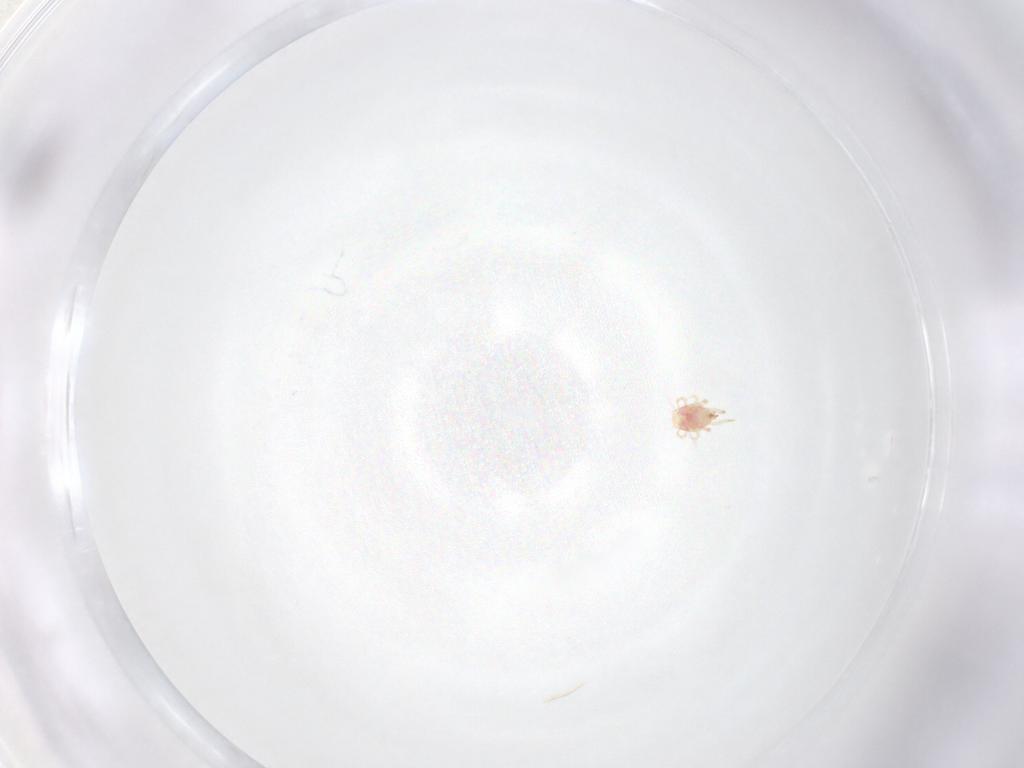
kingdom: Animalia
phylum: Arthropoda
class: Arachnida
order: Mesostigmata
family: Phytoseiidae
